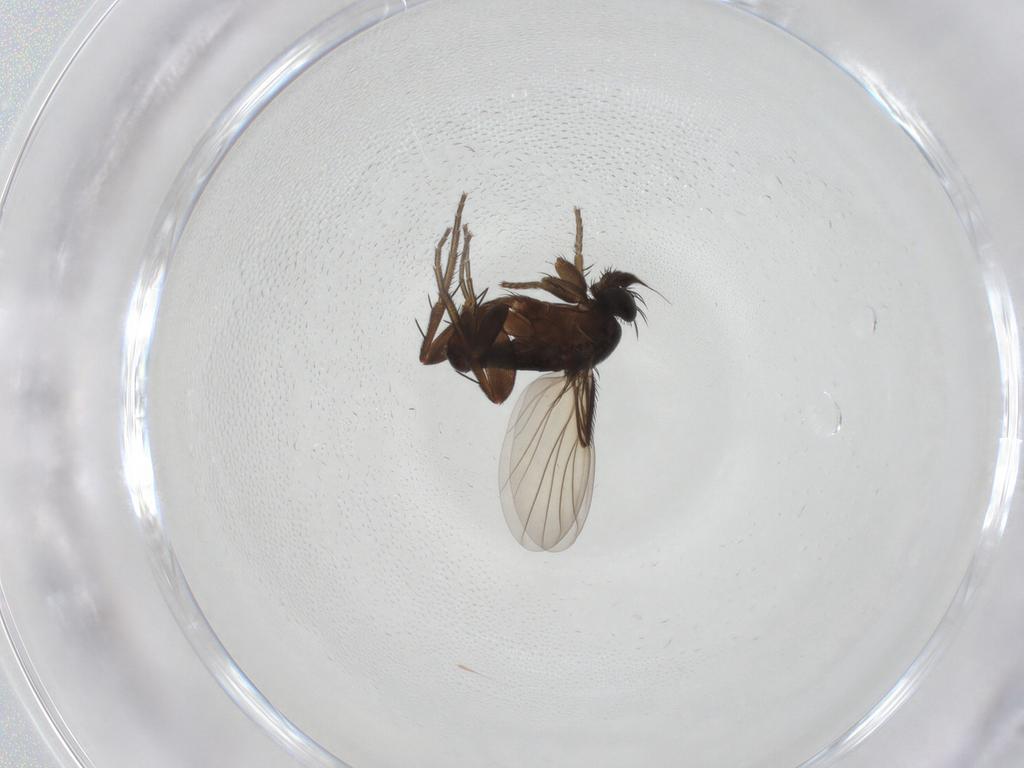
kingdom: Animalia
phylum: Arthropoda
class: Insecta
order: Diptera
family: Phoridae
